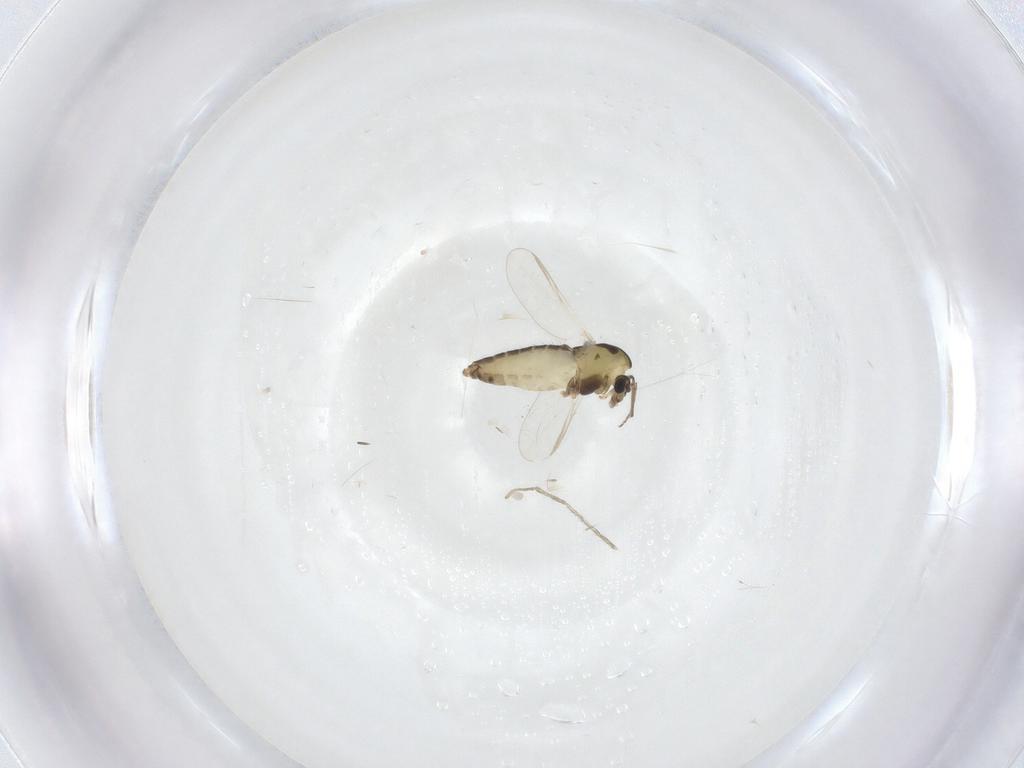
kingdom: Animalia
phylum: Arthropoda
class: Insecta
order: Diptera
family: Chironomidae
